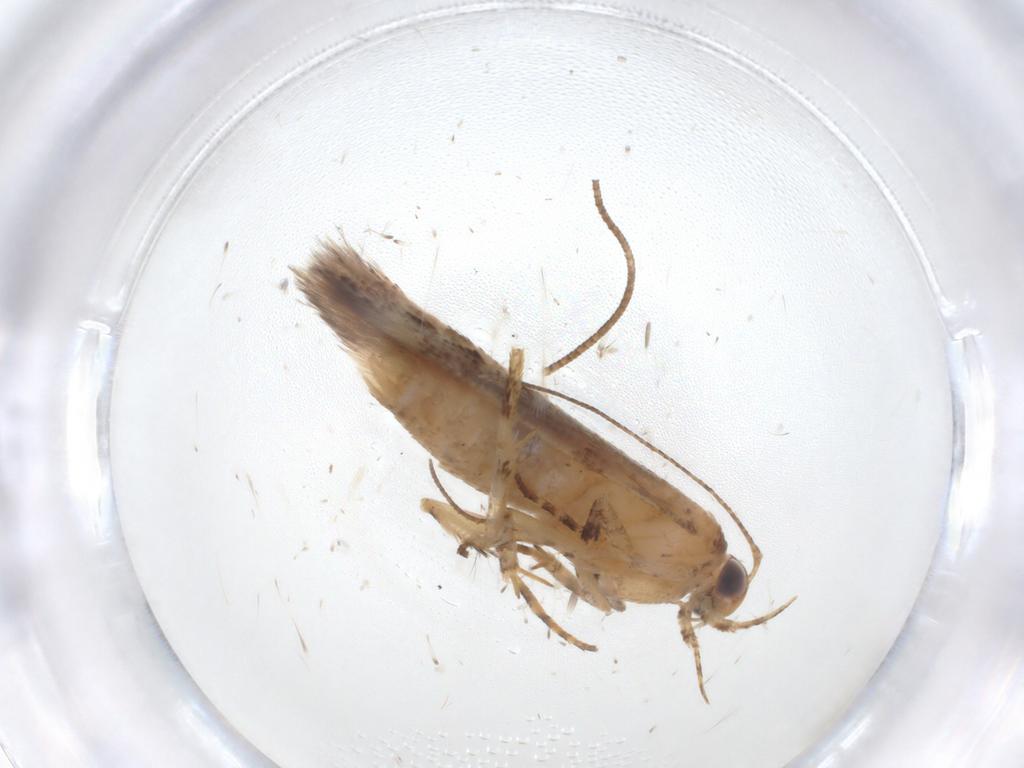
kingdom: Animalia
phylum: Arthropoda
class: Insecta
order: Lepidoptera
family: Gelechiidae
